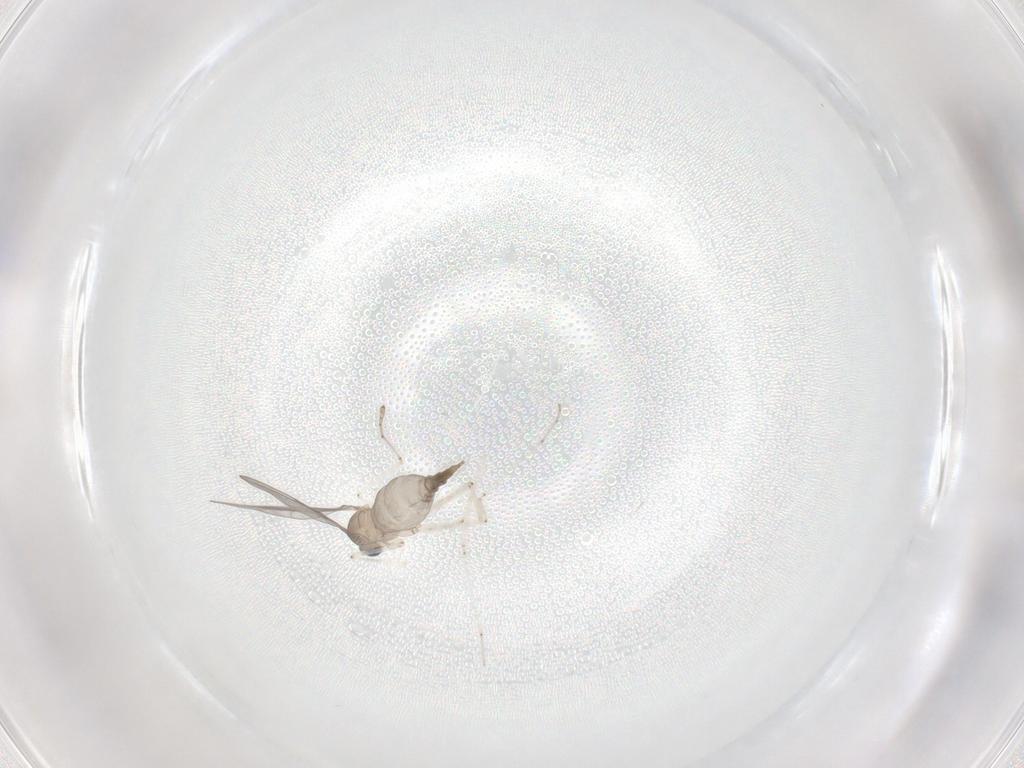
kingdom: Animalia
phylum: Arthropoda
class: Insecta
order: Diptera
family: Cecidomyiidae
